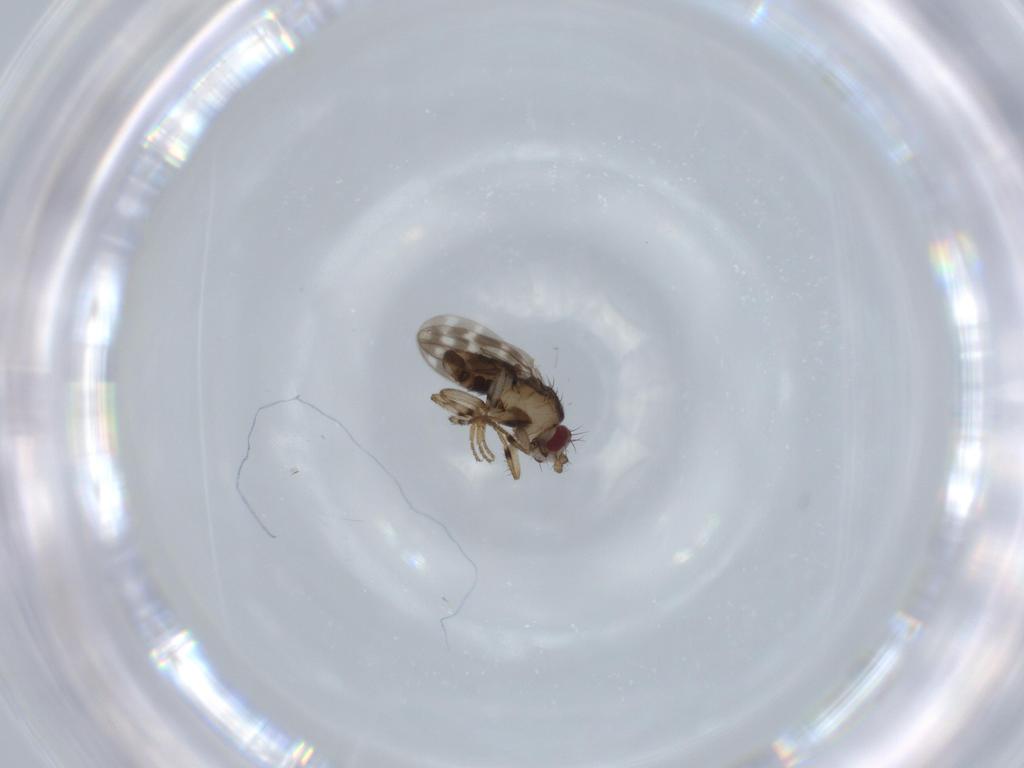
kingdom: Animalia
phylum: Arthropoda
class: Insecta
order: Diptera
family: Sphaeroceridae
